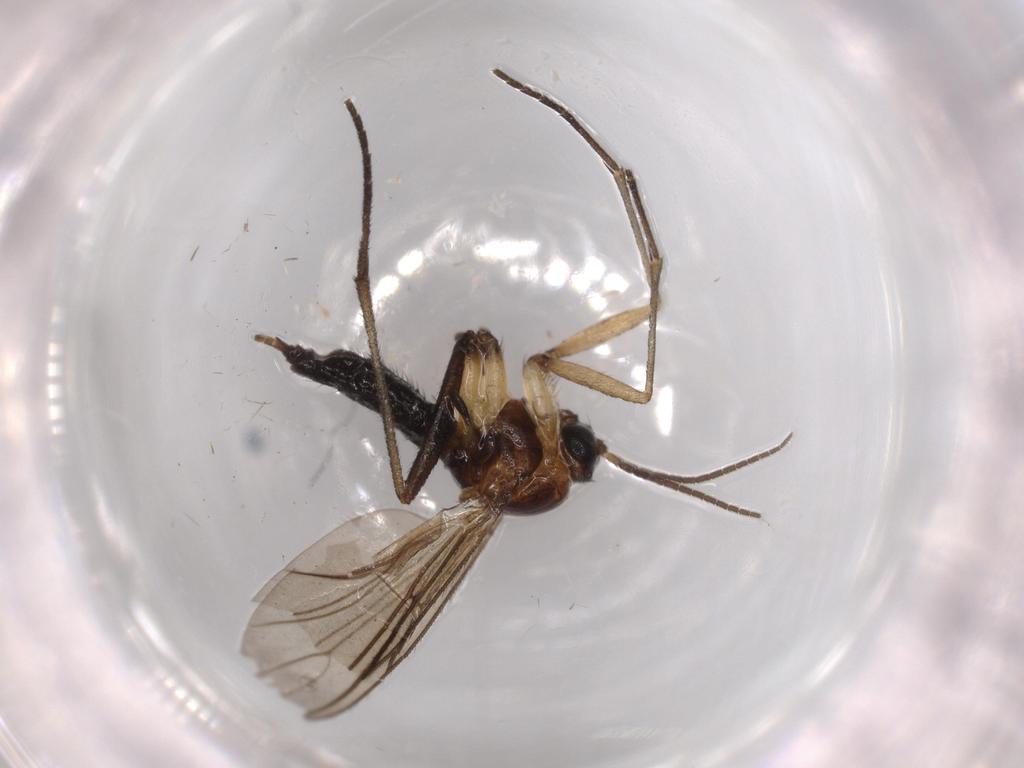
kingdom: Animalia
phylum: Arthropoda
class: Insecta
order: Diptera
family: Sciaridae
